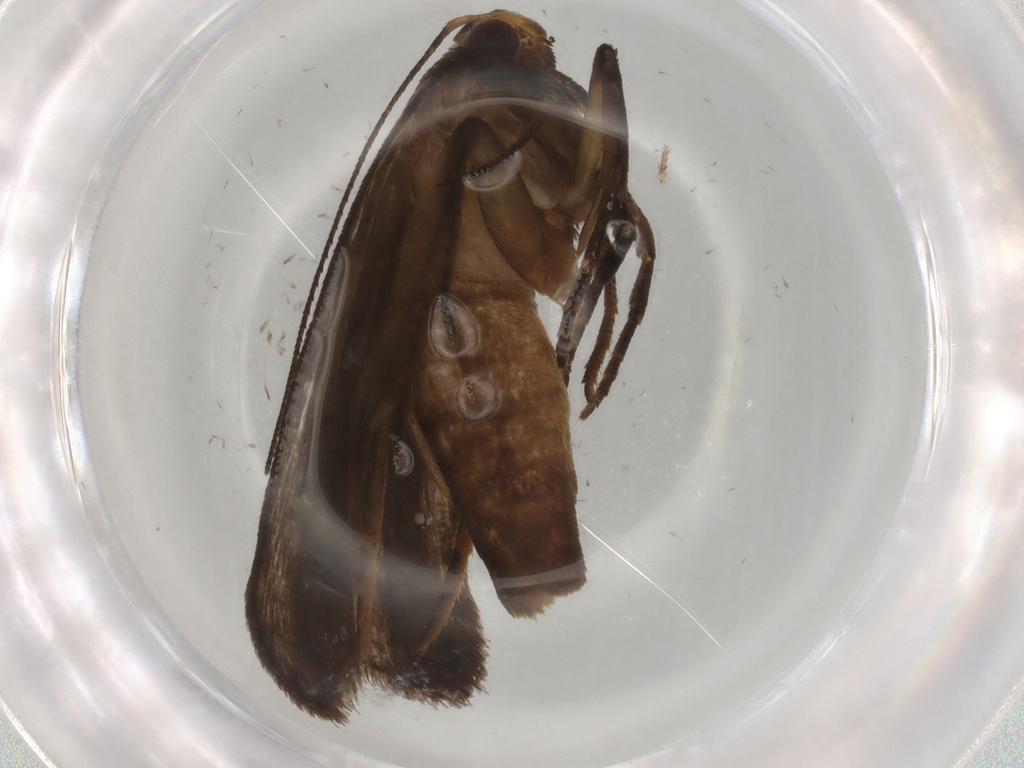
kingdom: Animalia
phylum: Arthropoda
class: Insecta
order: Lepidoptera
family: Gelechiidae
